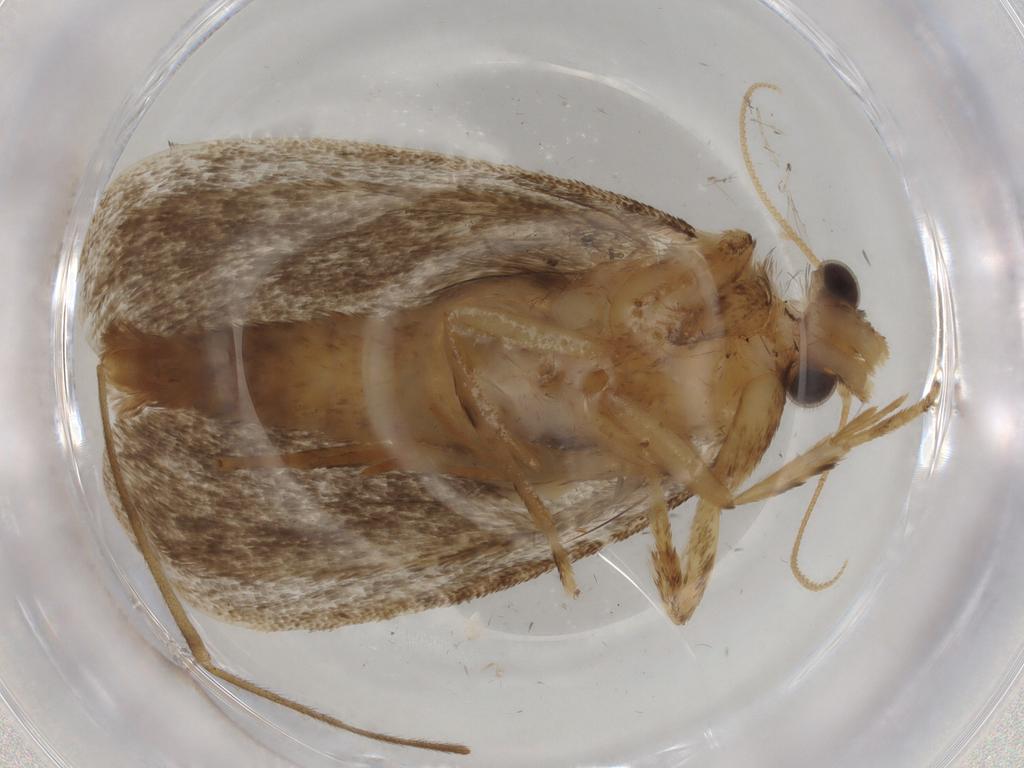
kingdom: Animalia
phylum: Arthropoda
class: Insecta
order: Lepidoptera
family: Tineidae
